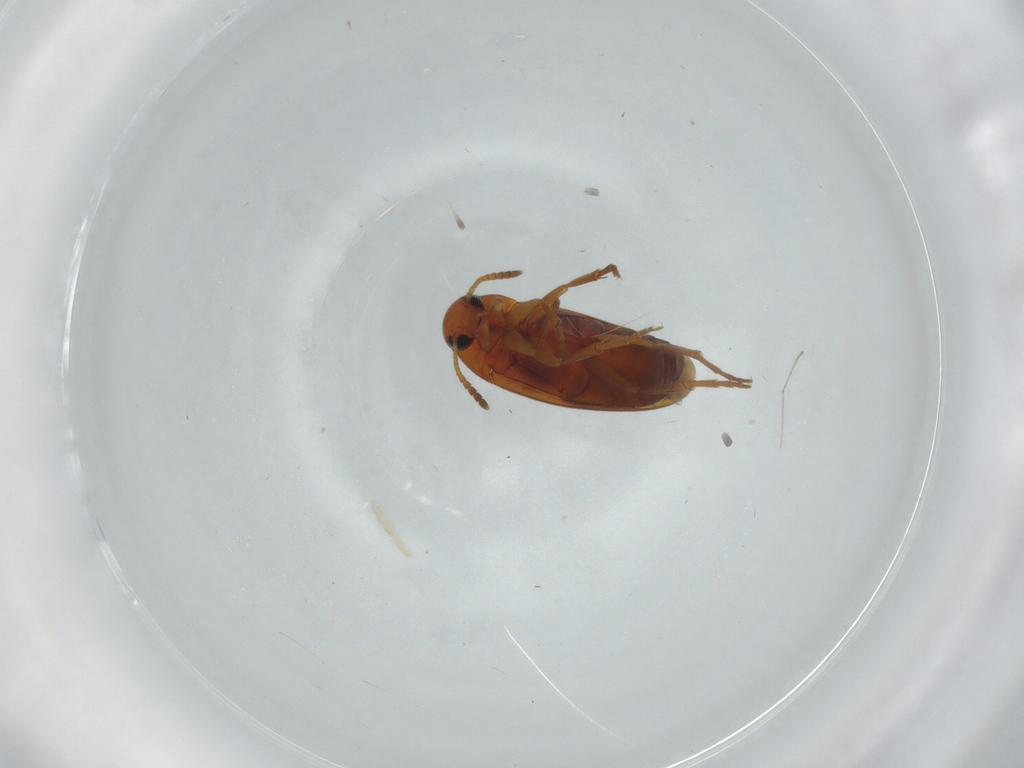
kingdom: Animalia
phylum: Arthropoda
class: Insecta
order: Coleoptera
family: Scraptiidae
